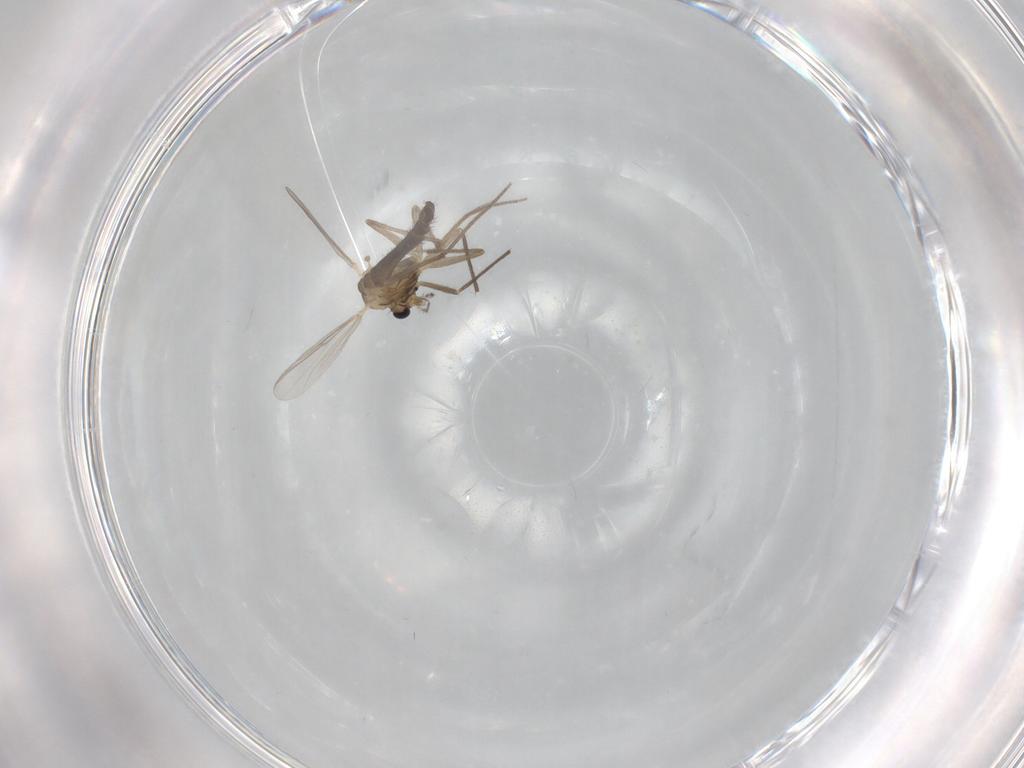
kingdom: Animalia
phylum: Arthropoda
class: Insecta
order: Diptera
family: Chironomidae
